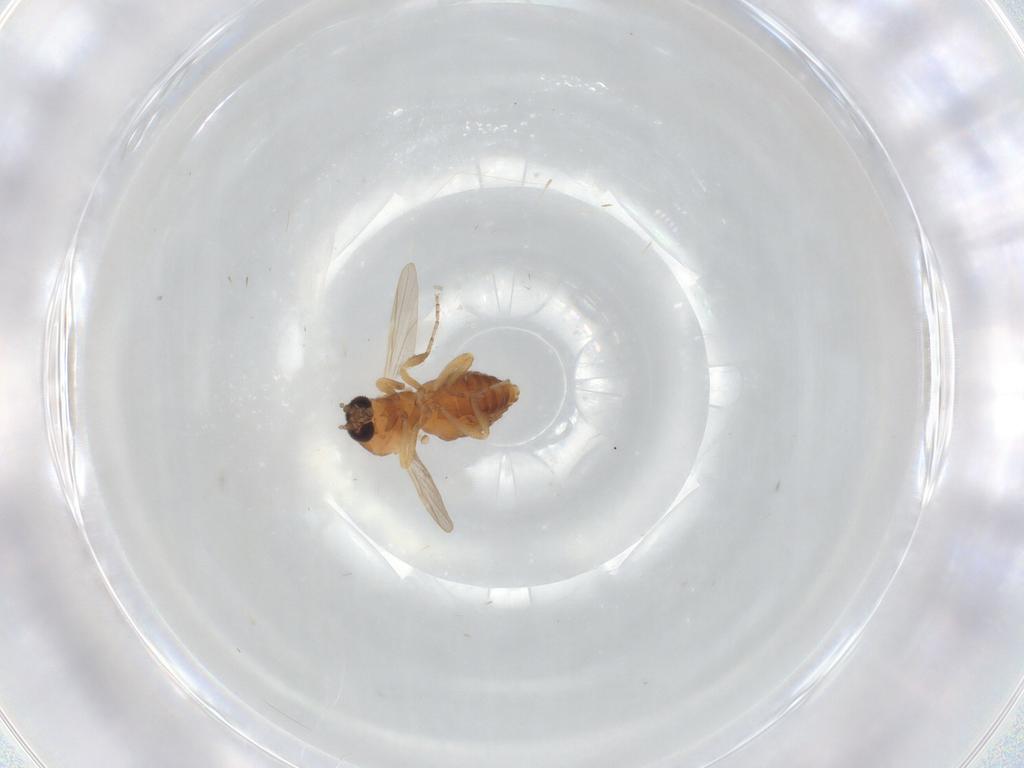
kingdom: Animalia
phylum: Arthropoda
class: Insecta
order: Diptera
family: Ceratopogonidae
